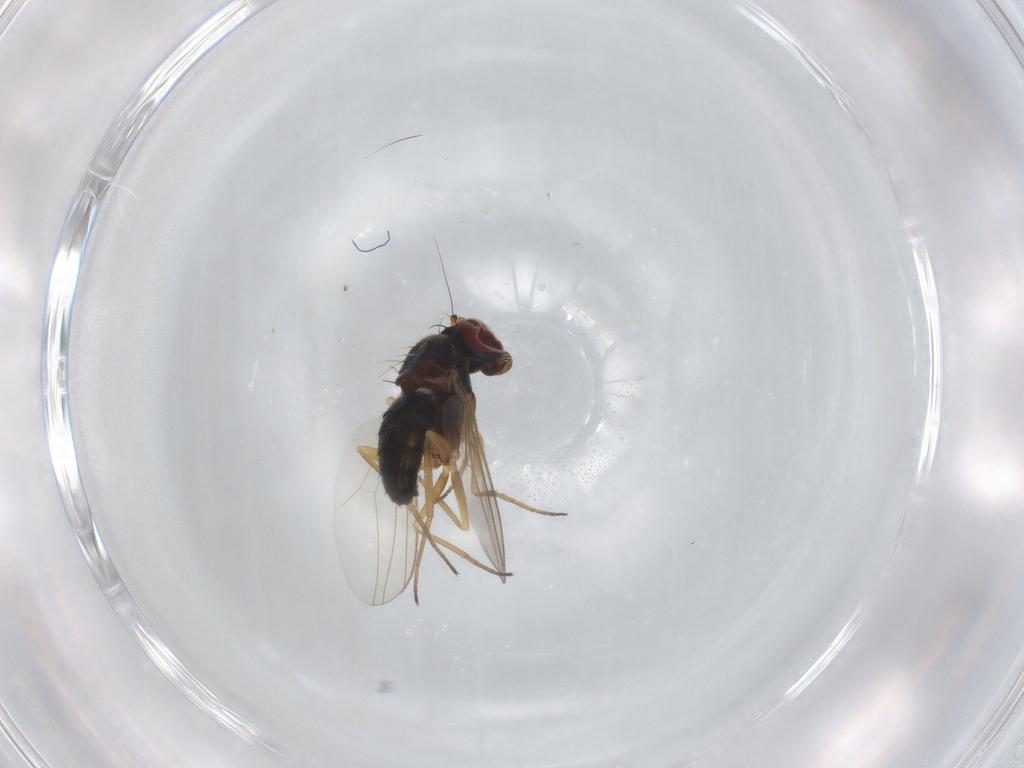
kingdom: Animalia
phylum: Arthropoda
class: Insecta
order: Diptera
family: Dolichopodidae
